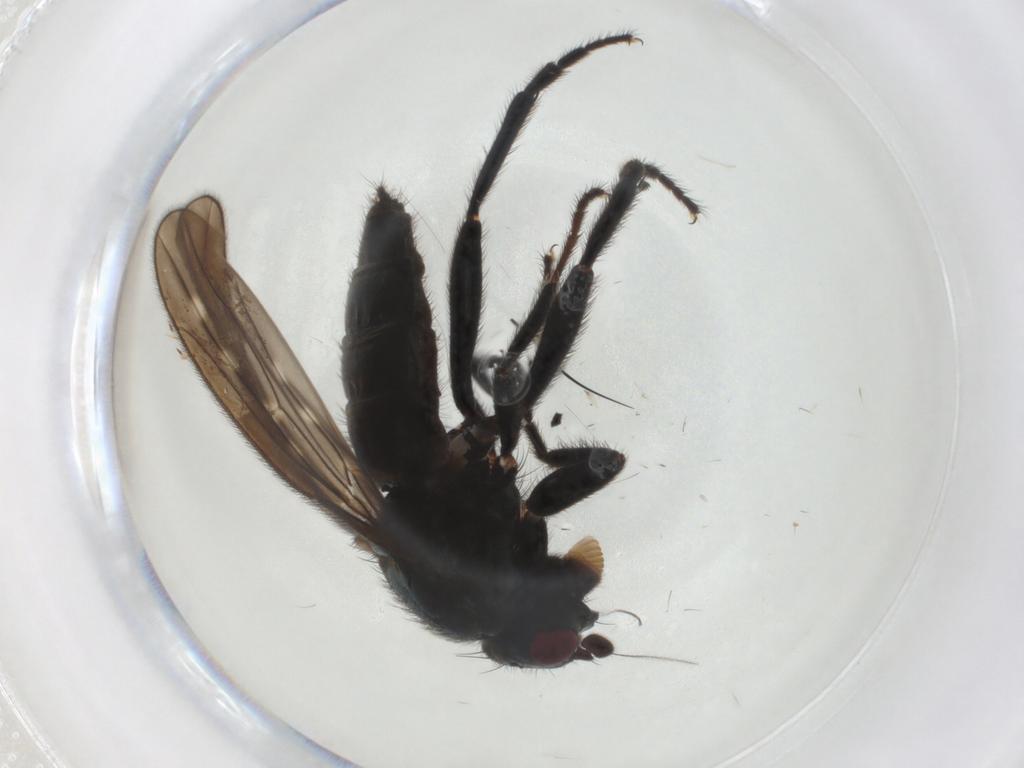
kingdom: Animalia
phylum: Arthropoda
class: Insecta
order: Diptera
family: Sphaeroceridae
